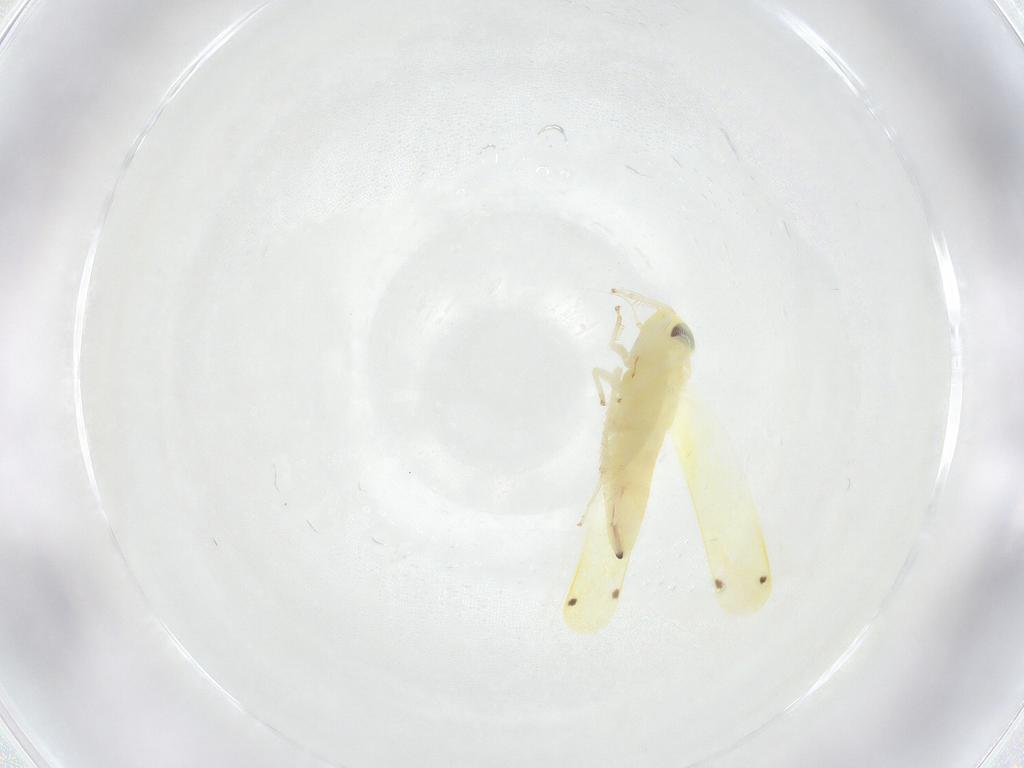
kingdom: Animalia
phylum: Arthropoda
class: Insecta
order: Hemiptera
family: Cicadellidae
